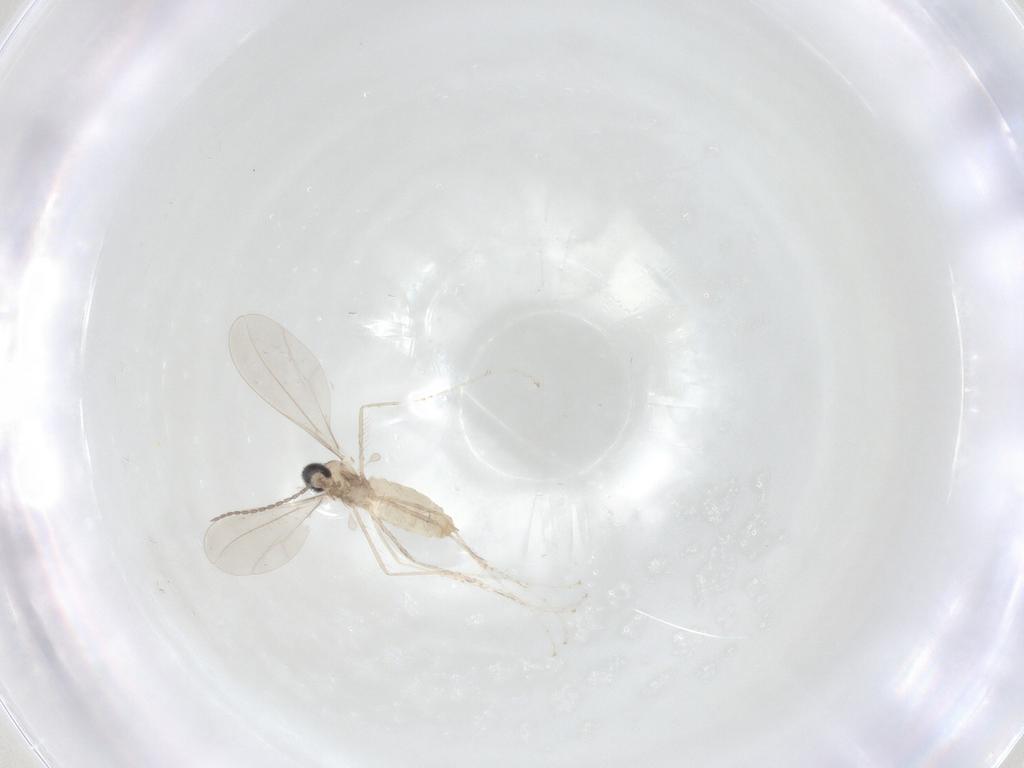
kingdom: Animalia
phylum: Arthropoda
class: Insecta
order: Diptera
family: Cecidomyiidae
